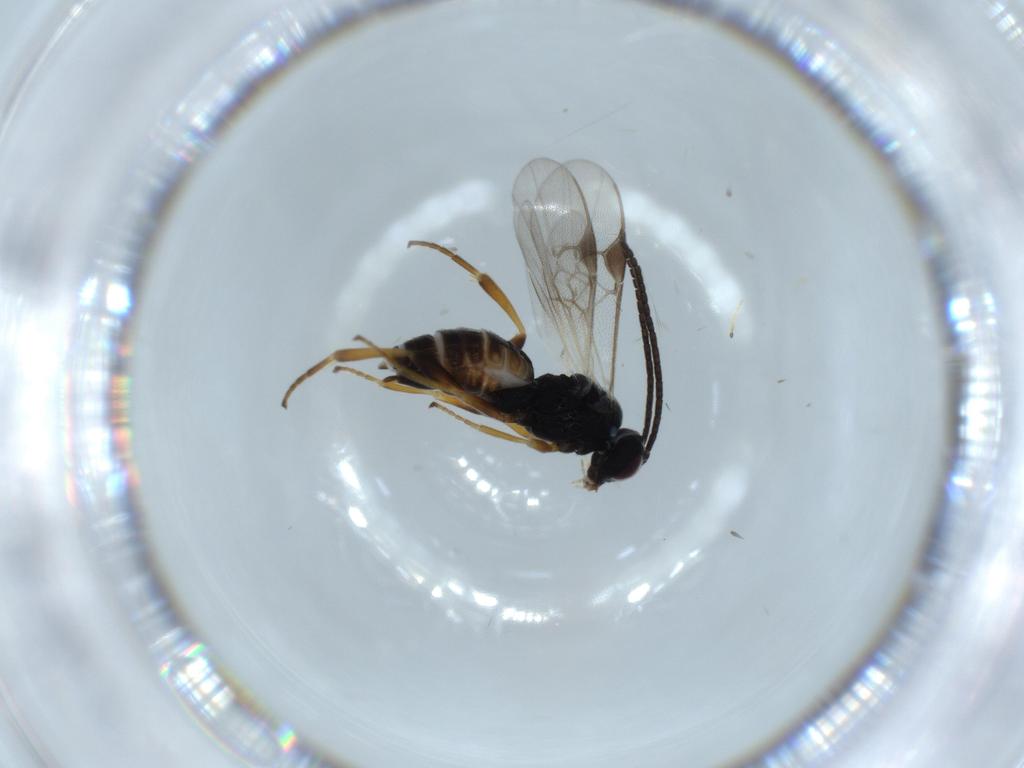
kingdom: Animalia
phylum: Arthropoda
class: Insecta
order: Hymenoptera
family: Braconidae
